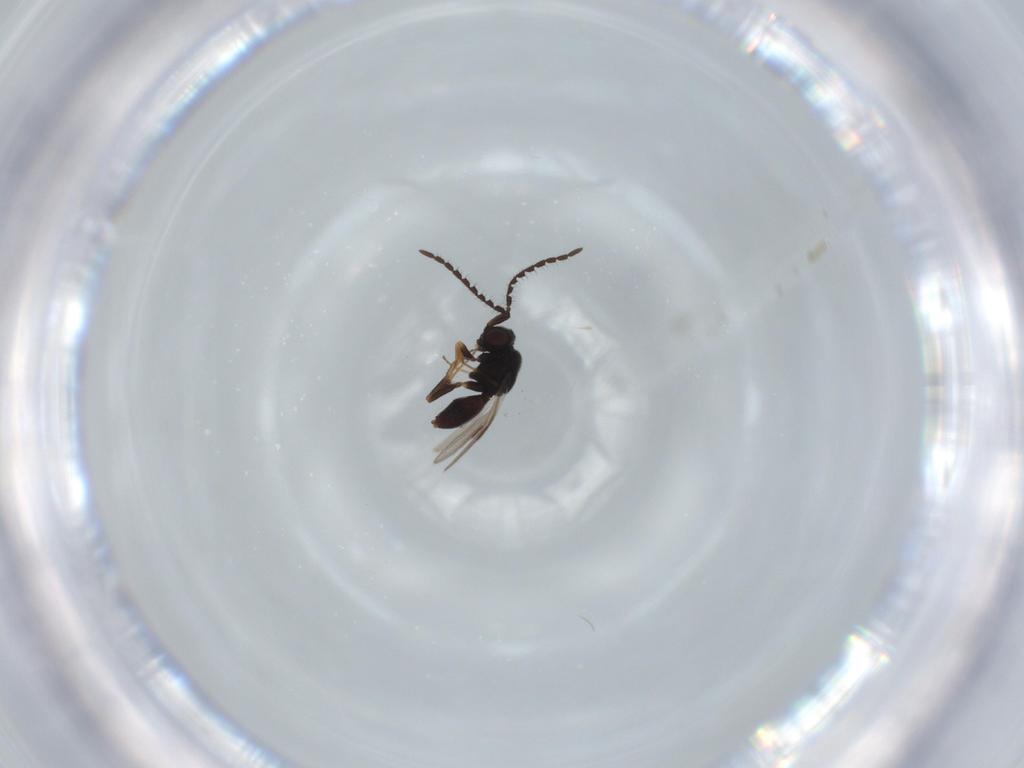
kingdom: Animalia
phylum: Arthropoda
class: Insecta
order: Hymenoptera
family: Megaspilidae
